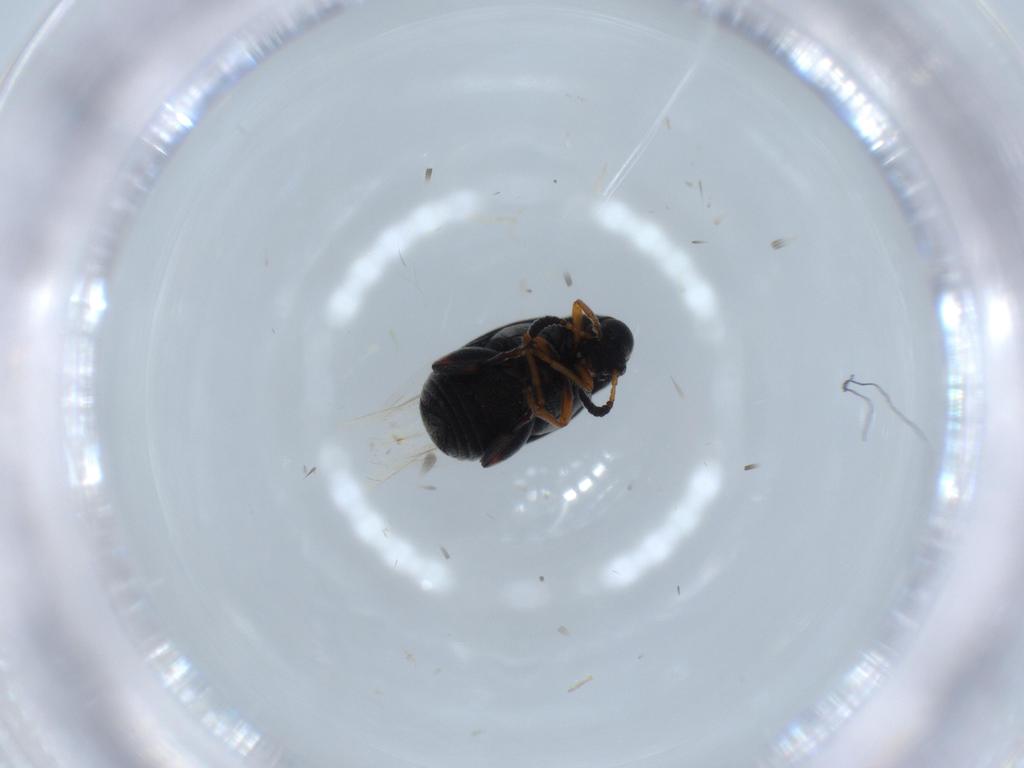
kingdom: Animalia
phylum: Arthropoda
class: Insecta
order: Coleoptera
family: Chrysomelidae
